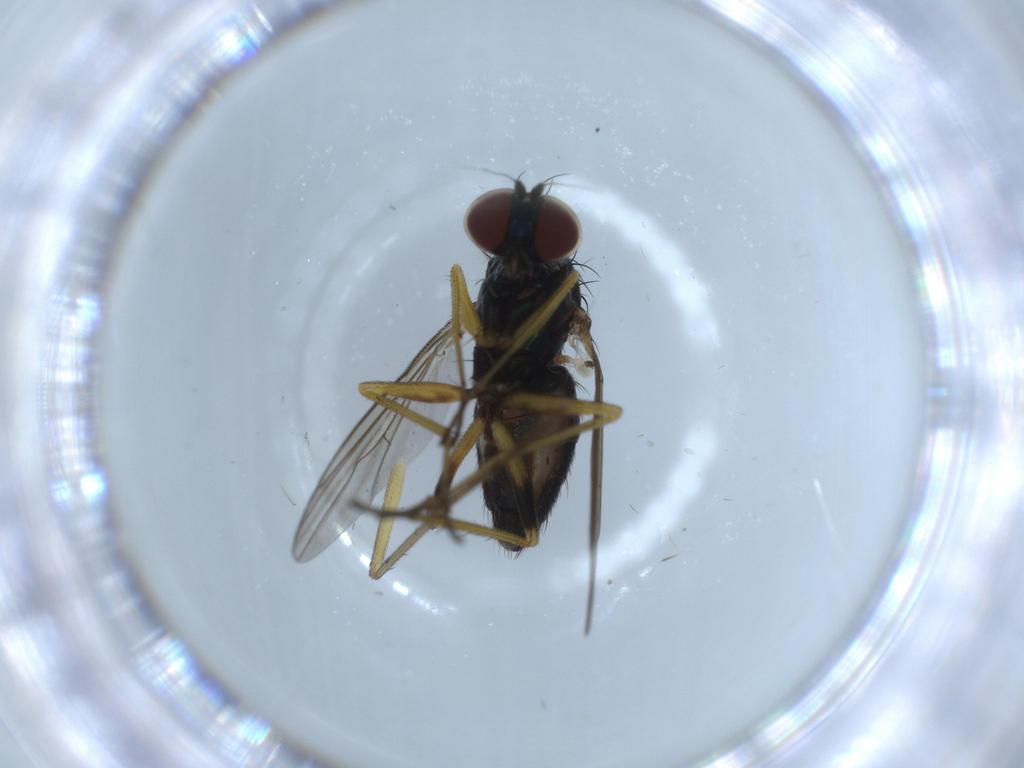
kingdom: Animalia
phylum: Arthropoda
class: Insecta
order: Diptera
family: Dolichopodidae
